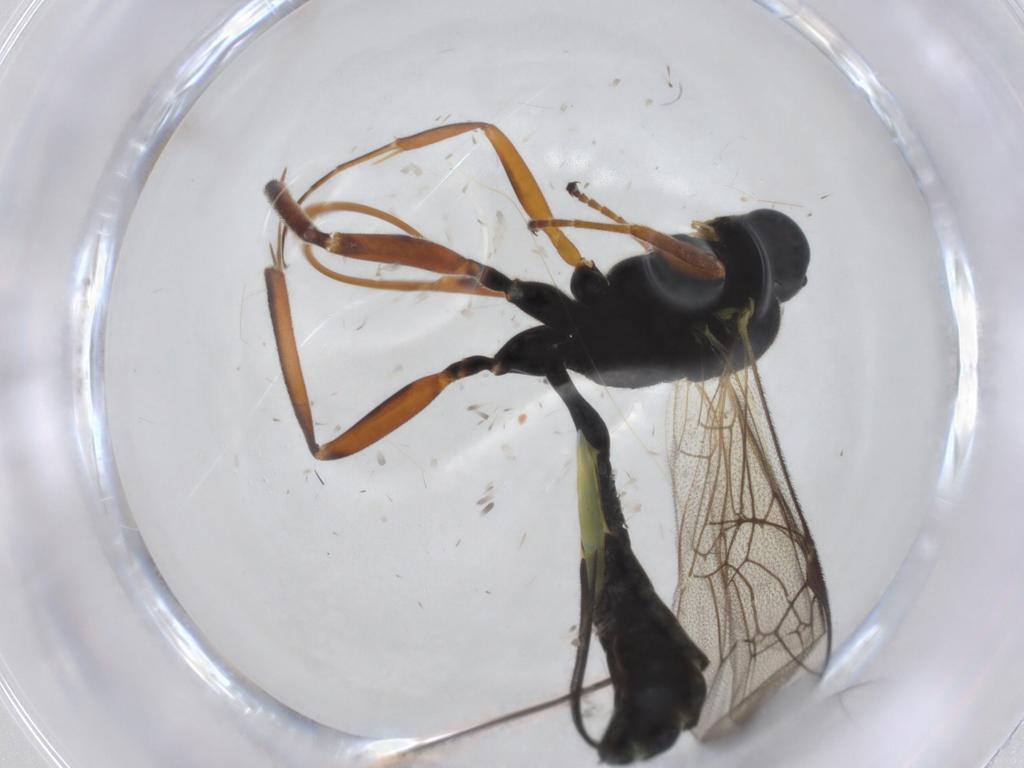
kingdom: Animalia
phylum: Arthropoda
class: Insecta
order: Hymenoptera
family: Ichneumonidae
